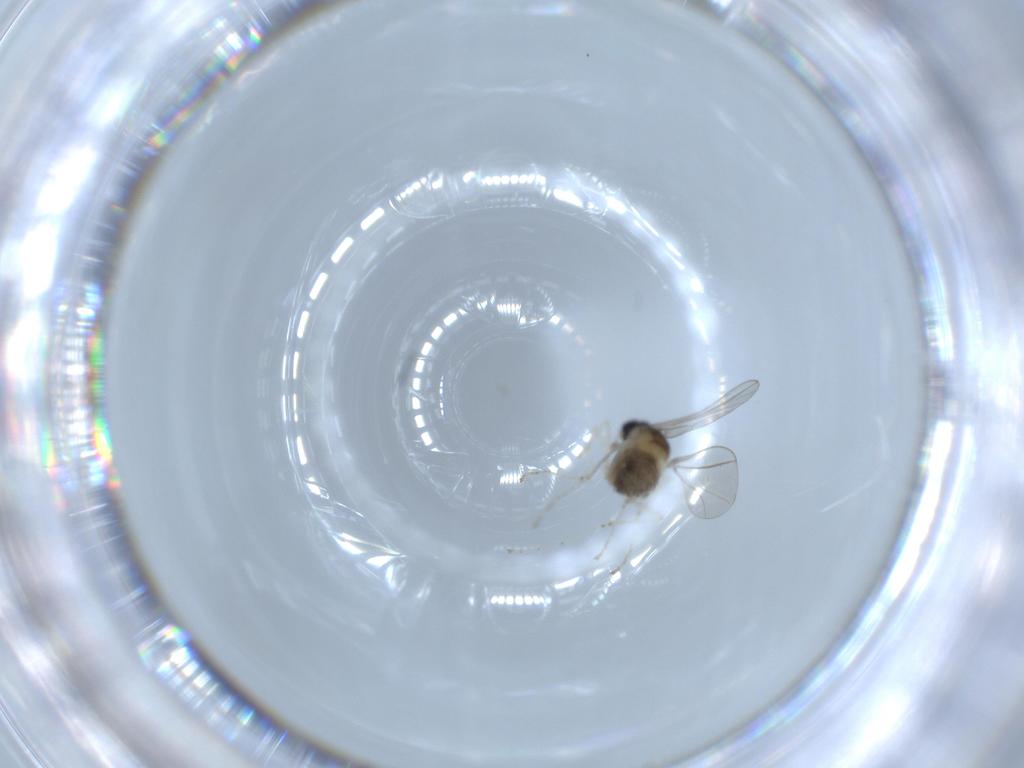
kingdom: Animalia
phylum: Arthropoda
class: Insecta
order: Diptera
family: Cecidomyiidae
